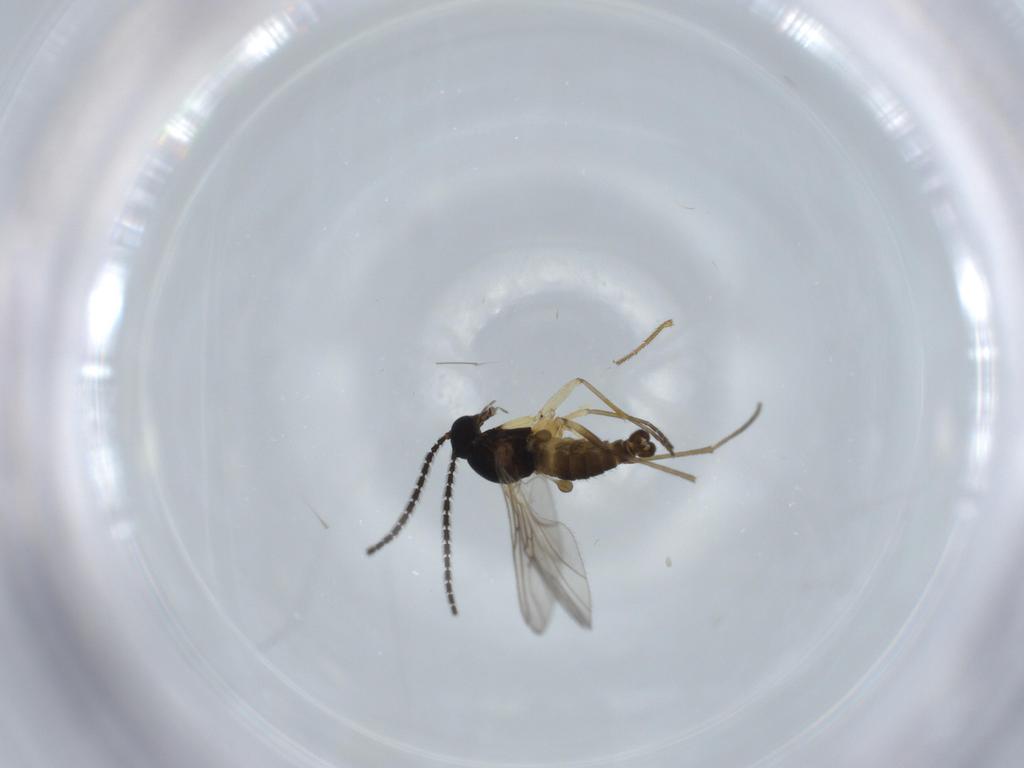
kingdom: Animalia
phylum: Arthropoda
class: Insecta
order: Diptera
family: Sciaridae
